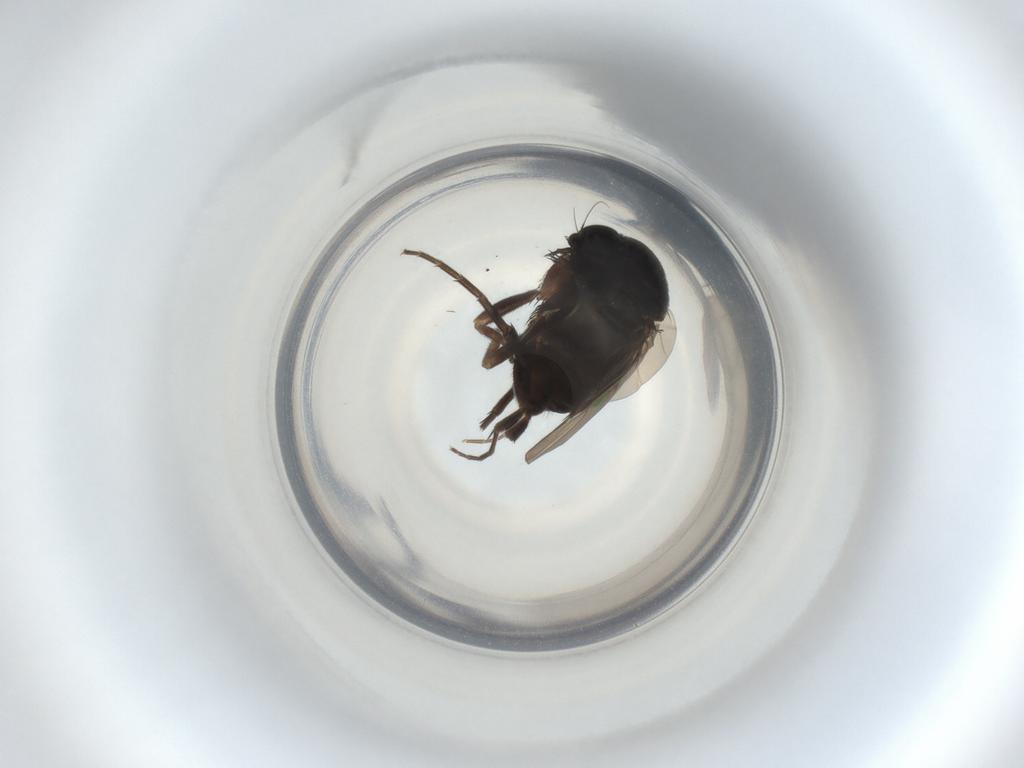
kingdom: Animalia
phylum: Arthropoda
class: Insecta
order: Diptera
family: Phoridae
